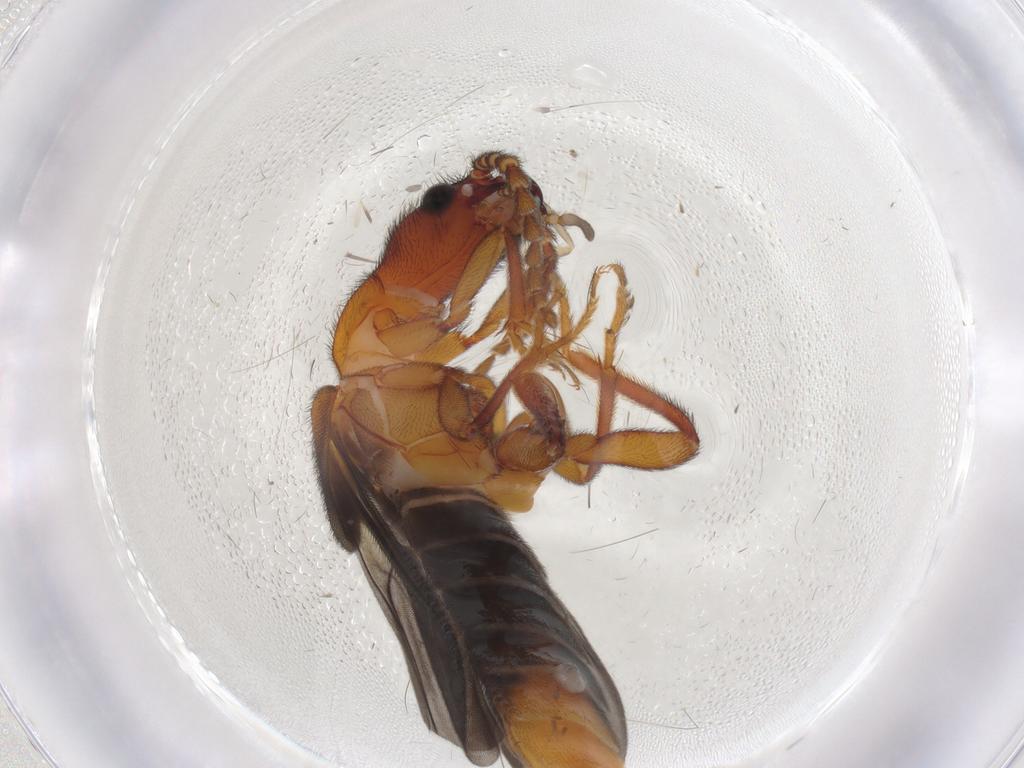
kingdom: Animalia
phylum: Arthropoda
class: Insecta
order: Coleoptera
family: Omethidae
